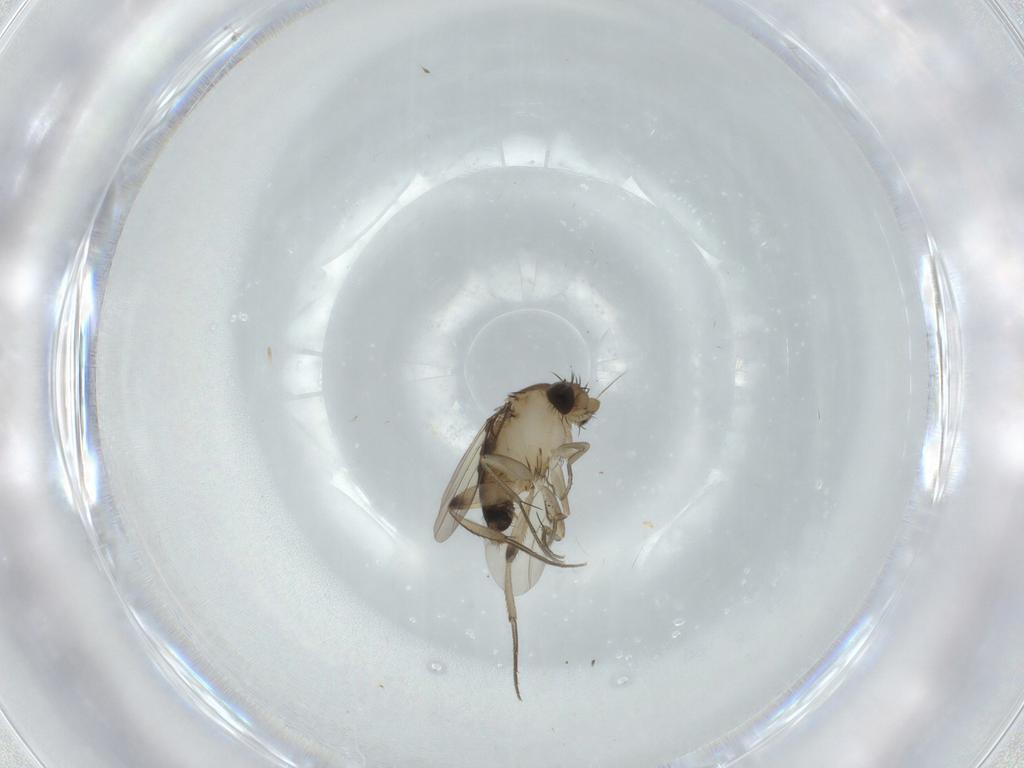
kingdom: Animalia
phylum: Arthropoda
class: Insecta
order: Diptera
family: Phoridae
